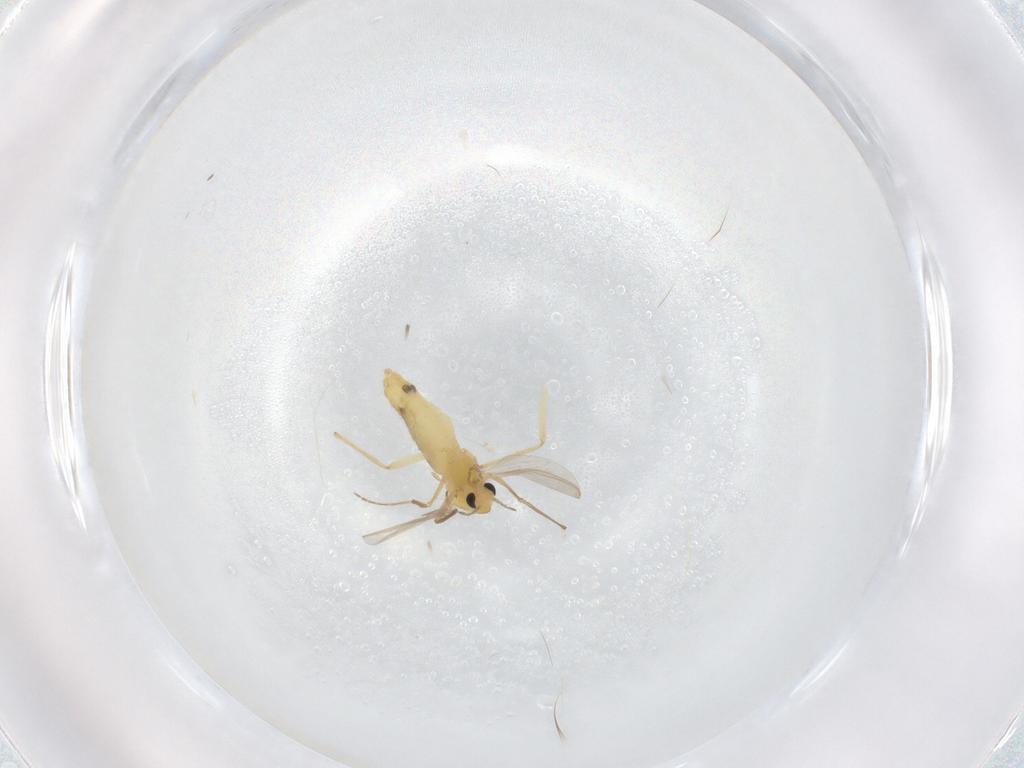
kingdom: Animalia
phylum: Arthropoda
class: Insecta
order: Diptera
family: Chironomidae
